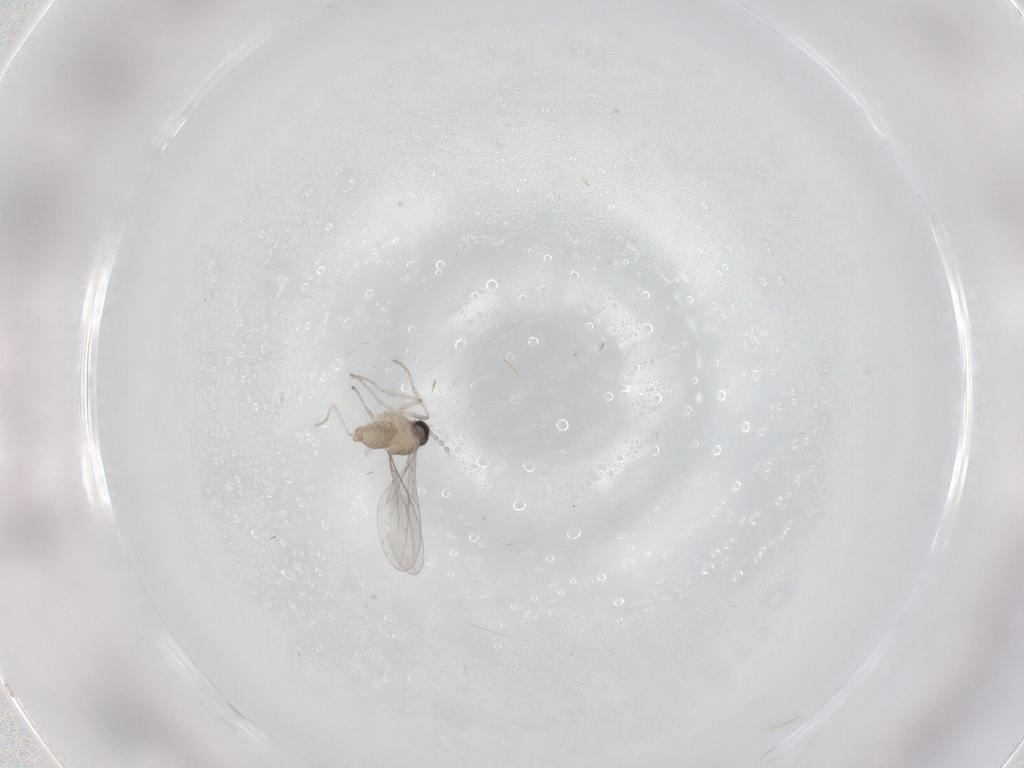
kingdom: Animalia
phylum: Arthropoda
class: Insecta
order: Diptera
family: Cecidomyiidae
